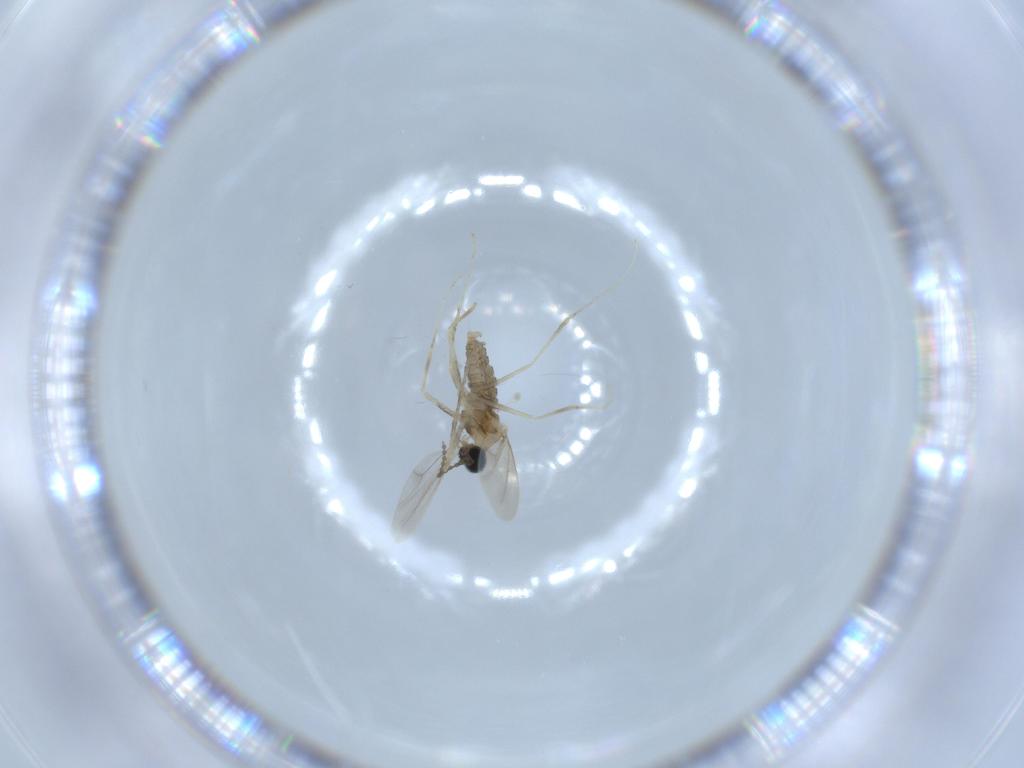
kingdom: Animalia
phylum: Arthropoda
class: Insecta
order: Diptera
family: Cecidomyiidae
